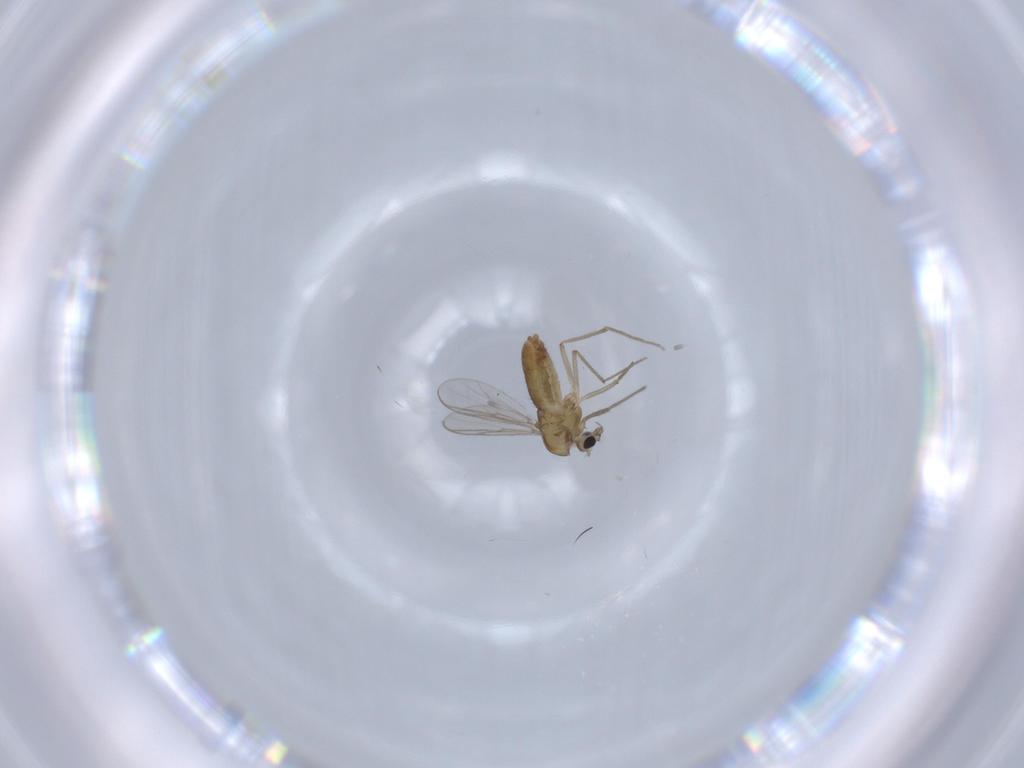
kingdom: Animalia
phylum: Arthropoda
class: Insecta
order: Diptera
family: Chironomidae
